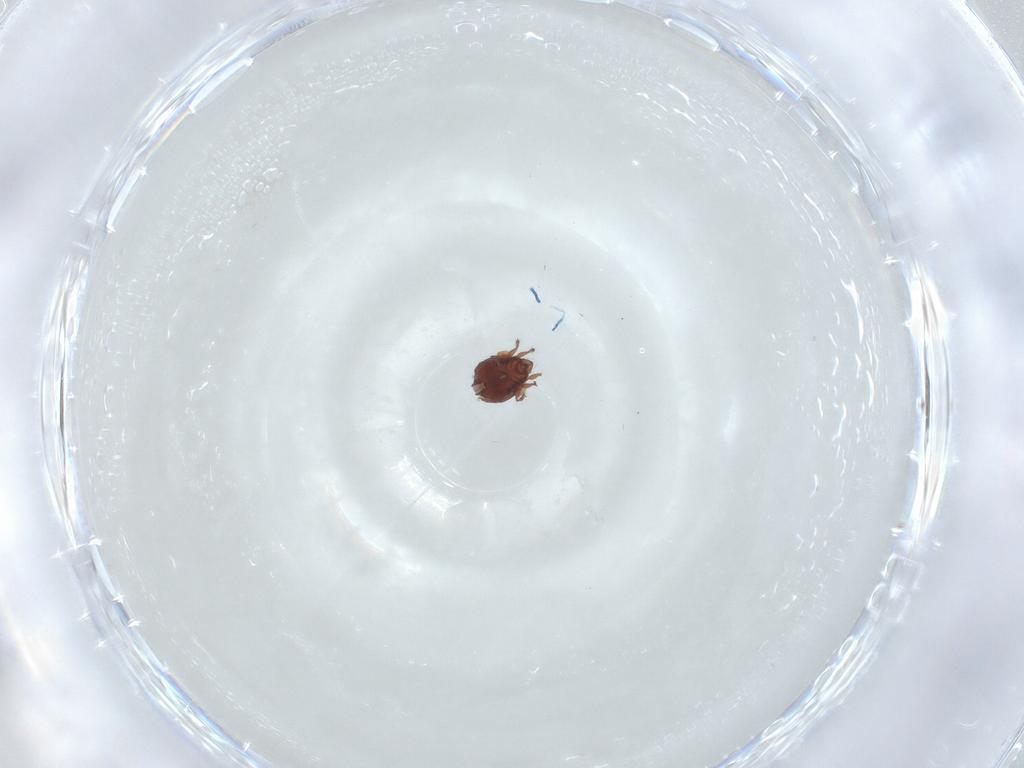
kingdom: Animalia
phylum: Arthropoda
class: Arachnida
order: Sarcoptiformes
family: Humerobatidae
